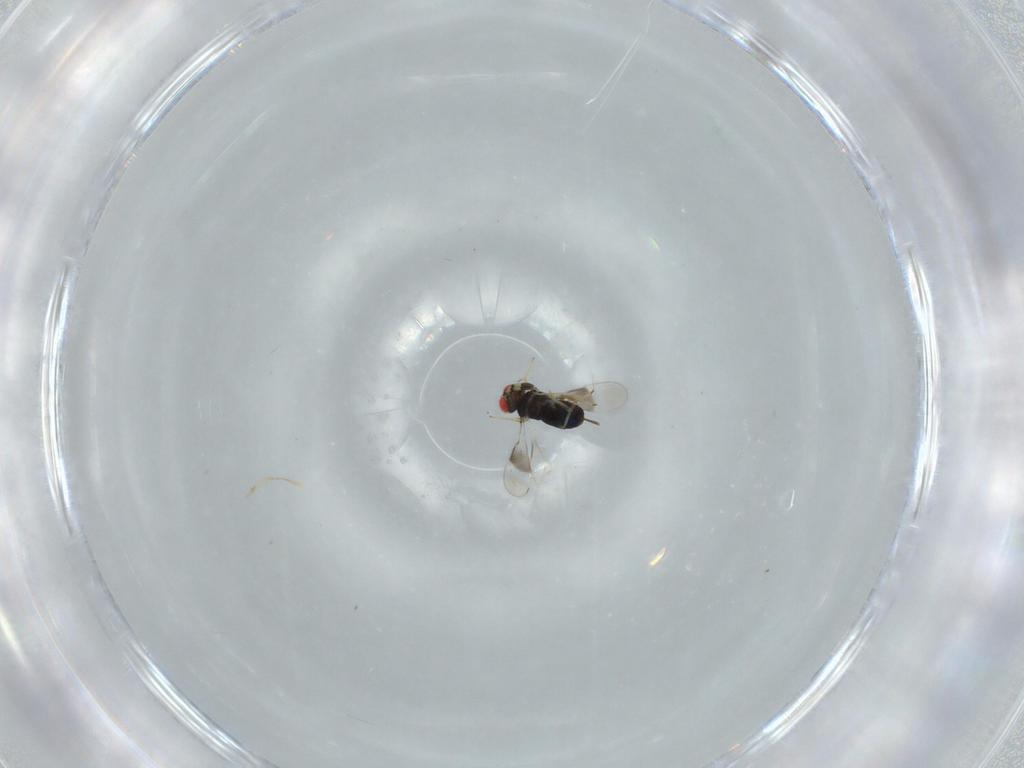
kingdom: Animalia
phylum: Arthropoda
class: Insecta
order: Hymenoptera
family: Azotidae
